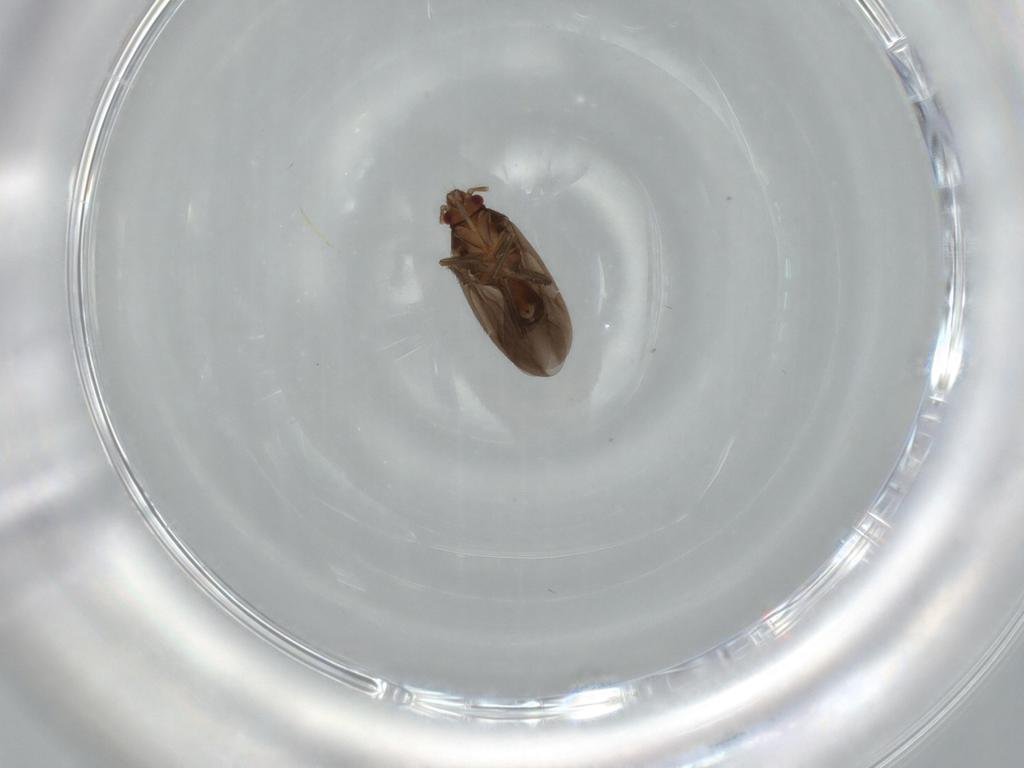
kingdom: Animalia
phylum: Arthropoda
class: Insecta
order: Hemiptera
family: Ceratocombidae
